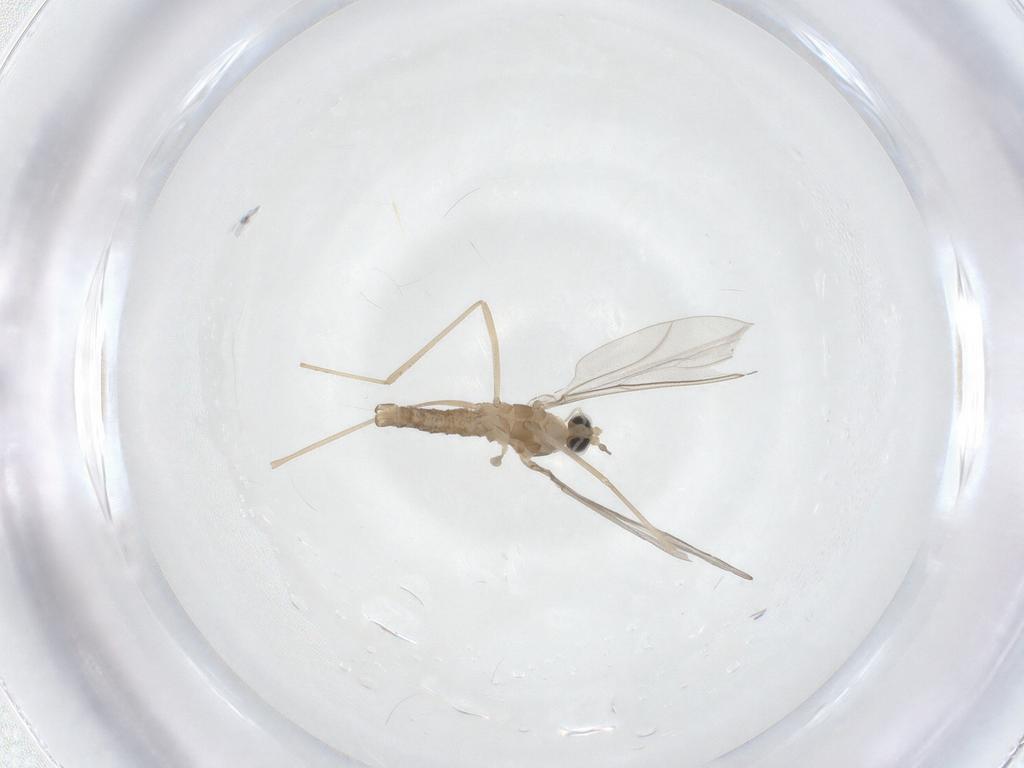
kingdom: Animalia
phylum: Arthropoda
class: Insecta
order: Diptera
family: Cecidomyiidae
